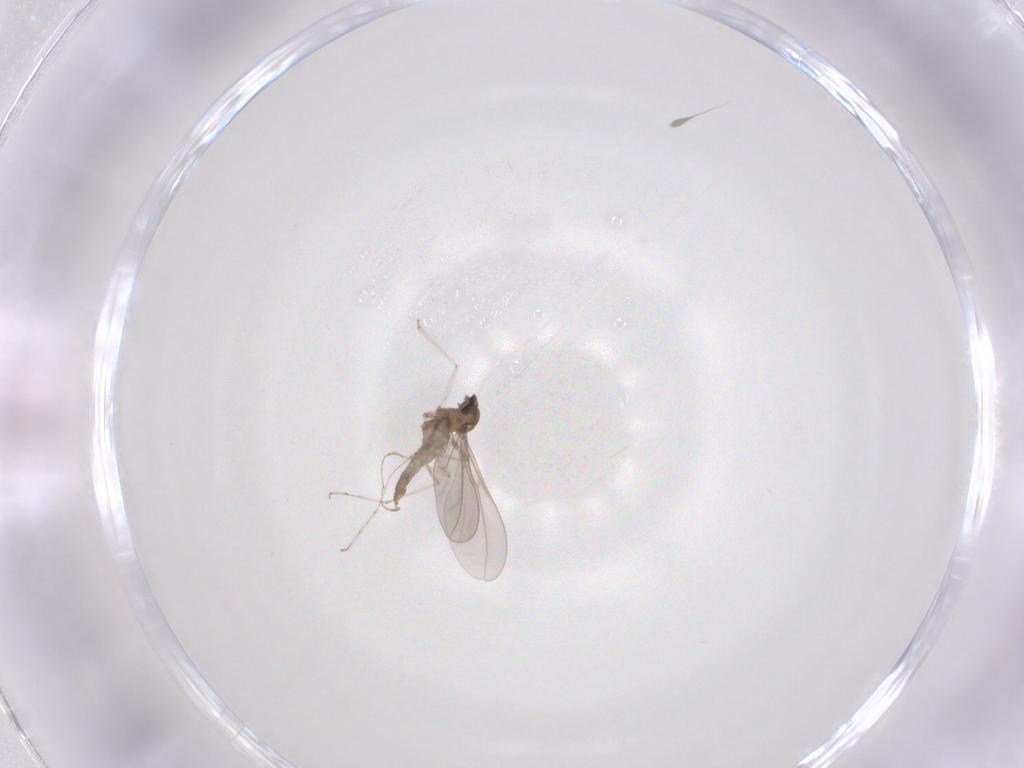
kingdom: Animalia
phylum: Arthropoda
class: Insecta
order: Diptera
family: Cecidomyiidae
